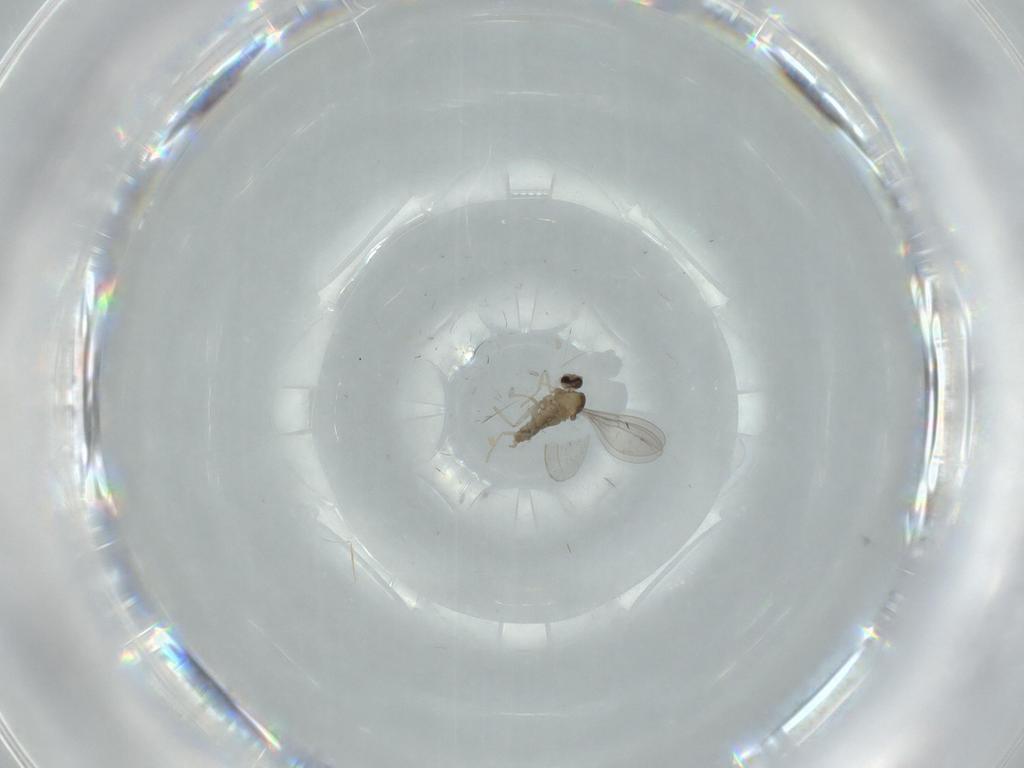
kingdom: Animalia
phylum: Arthropoda
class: Insecta
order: Diptera
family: Cecidomyiidae
